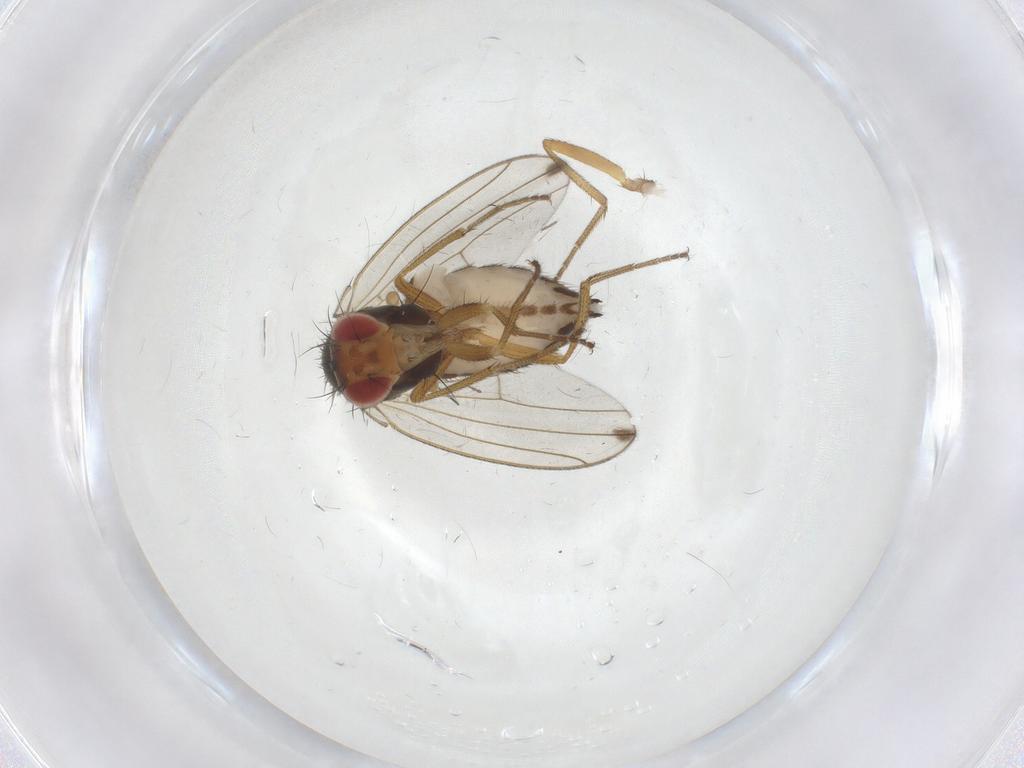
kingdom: Animalia
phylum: Arthropoda
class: Insecta
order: Diptera
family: Drosophilidae
